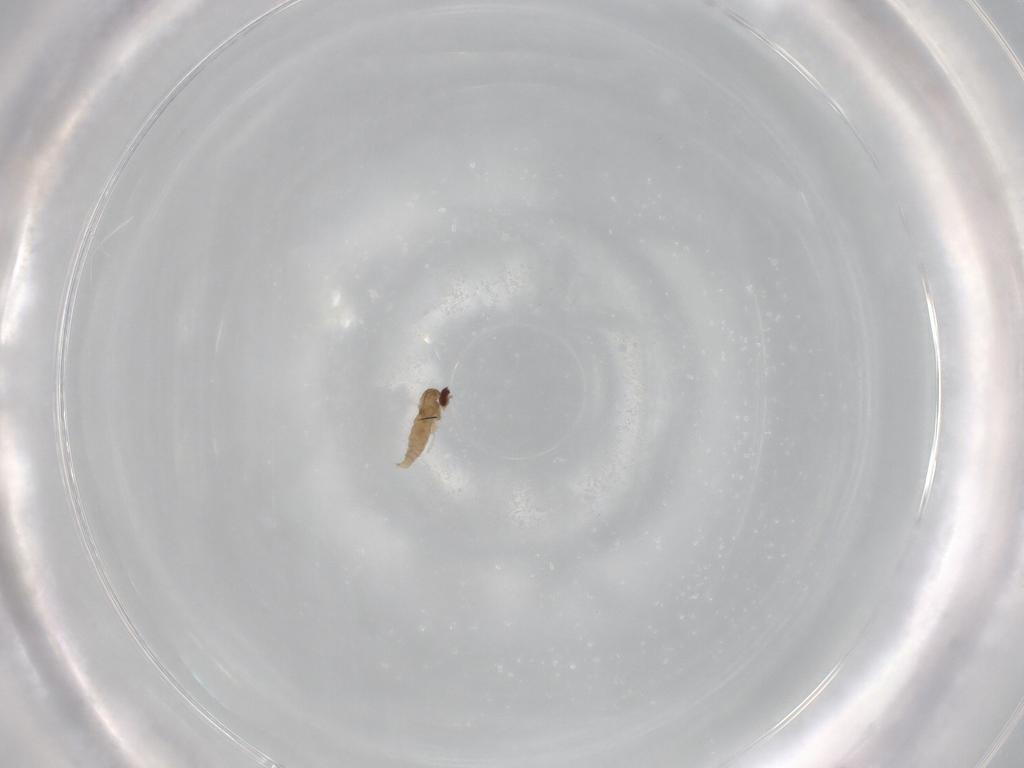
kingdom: Animalia
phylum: Arthropoda
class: Insecta
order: Diptera
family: Cecidomyiidae
